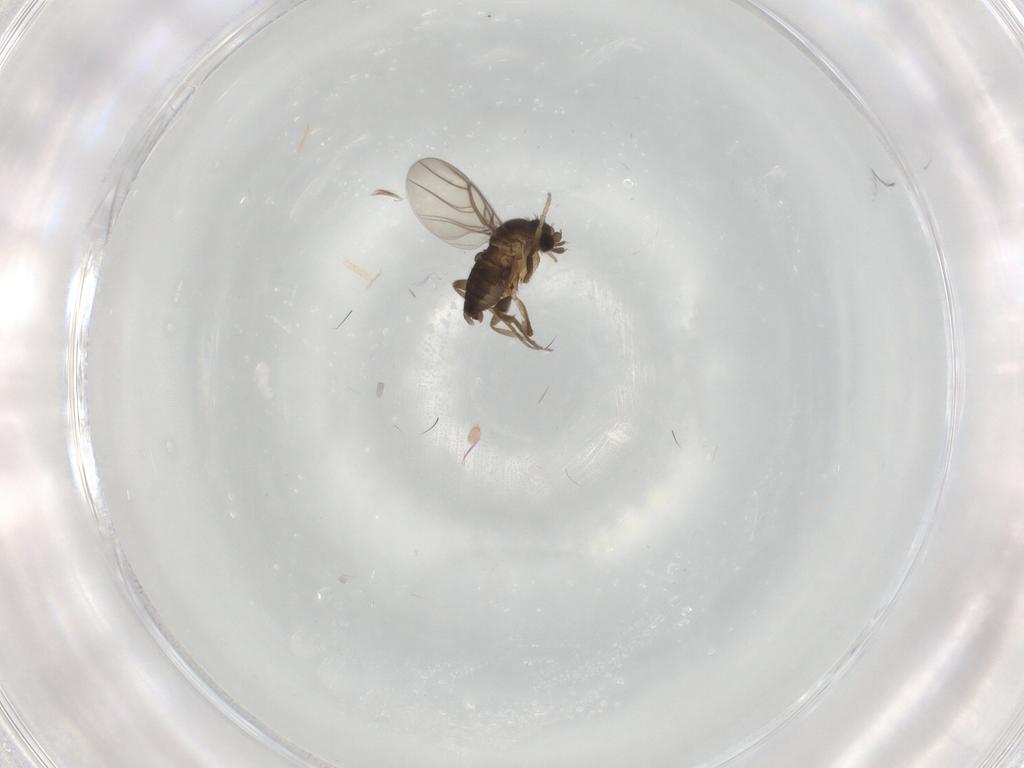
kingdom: Animalia
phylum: Arthropoda
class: Insecta
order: Diptera
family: Phoridae
